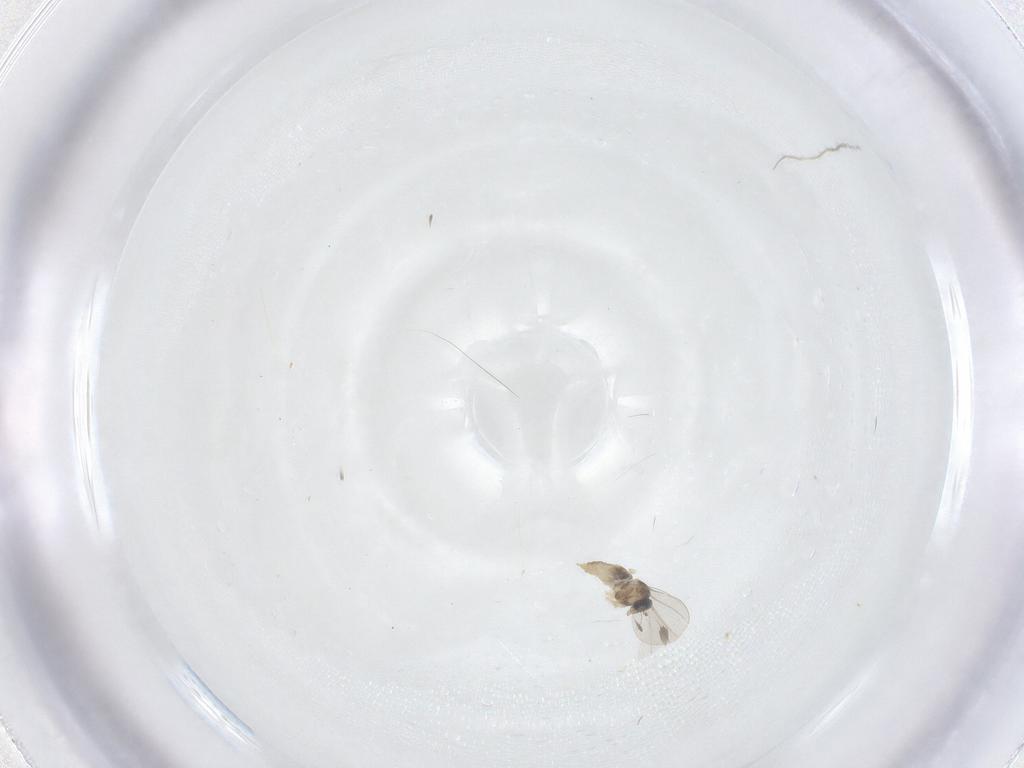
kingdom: Animalia
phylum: Arthropoda
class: Insecta
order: Diptera
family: Cecidomyiidae
